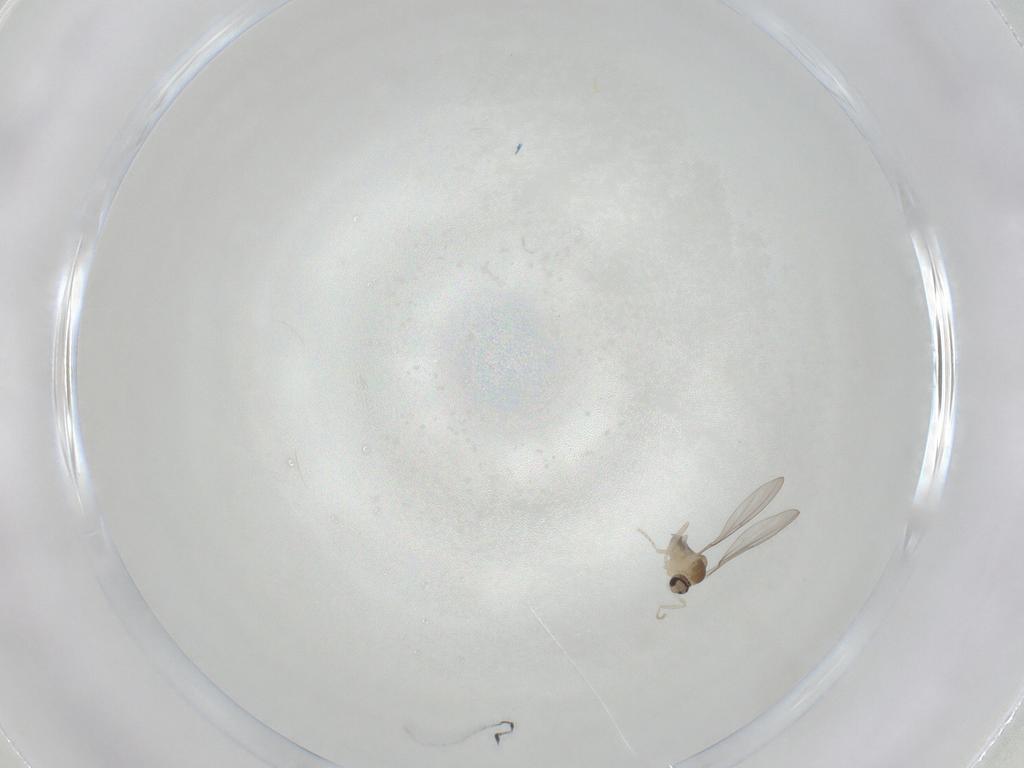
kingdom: Animalia
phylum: Arthropoda
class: Insecta
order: Diptera
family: Cecidomyiidae
